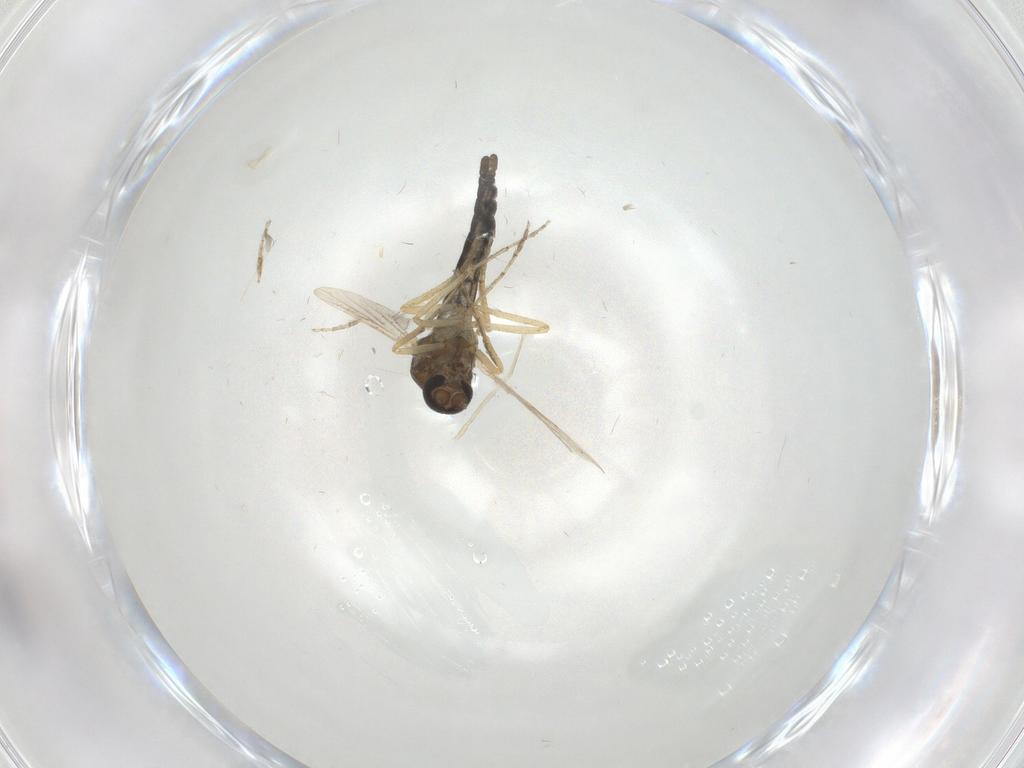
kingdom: Animalia
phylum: Arthropoda
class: Insecta
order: Diptera
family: Ceratopogonidae
